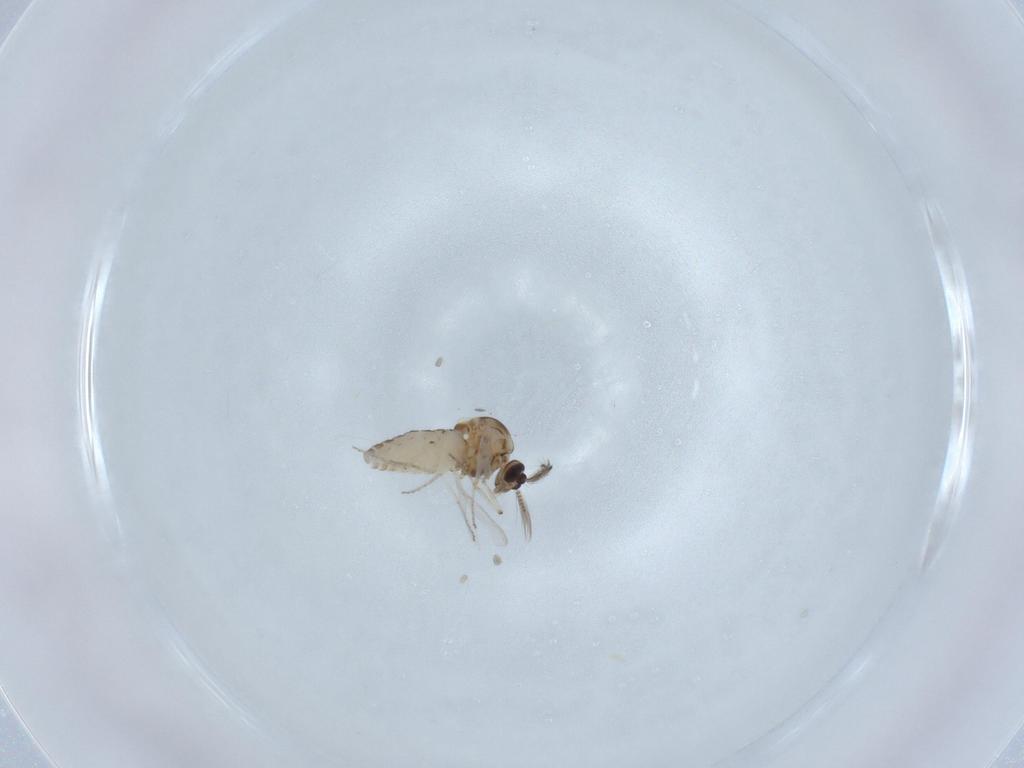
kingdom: Animalia
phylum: Arthropoda
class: Insecta
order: Diptera
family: Ceratopogonidae
